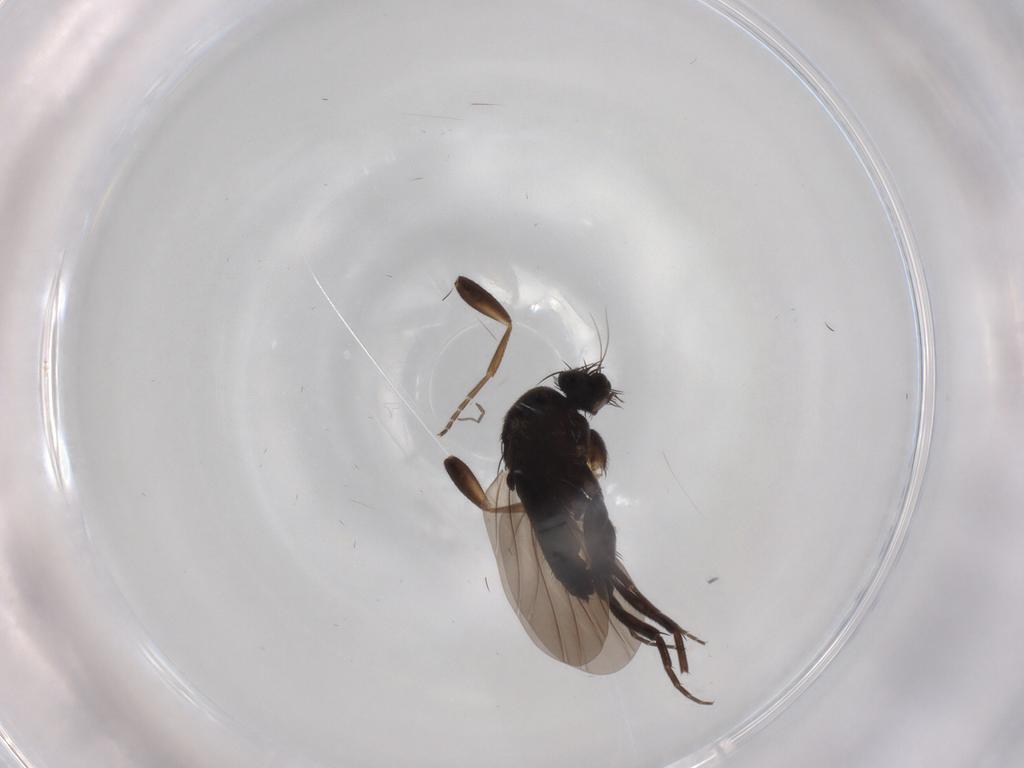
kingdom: Animalia
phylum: Arthropoda
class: Insecta
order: Diptera
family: Phoridae
